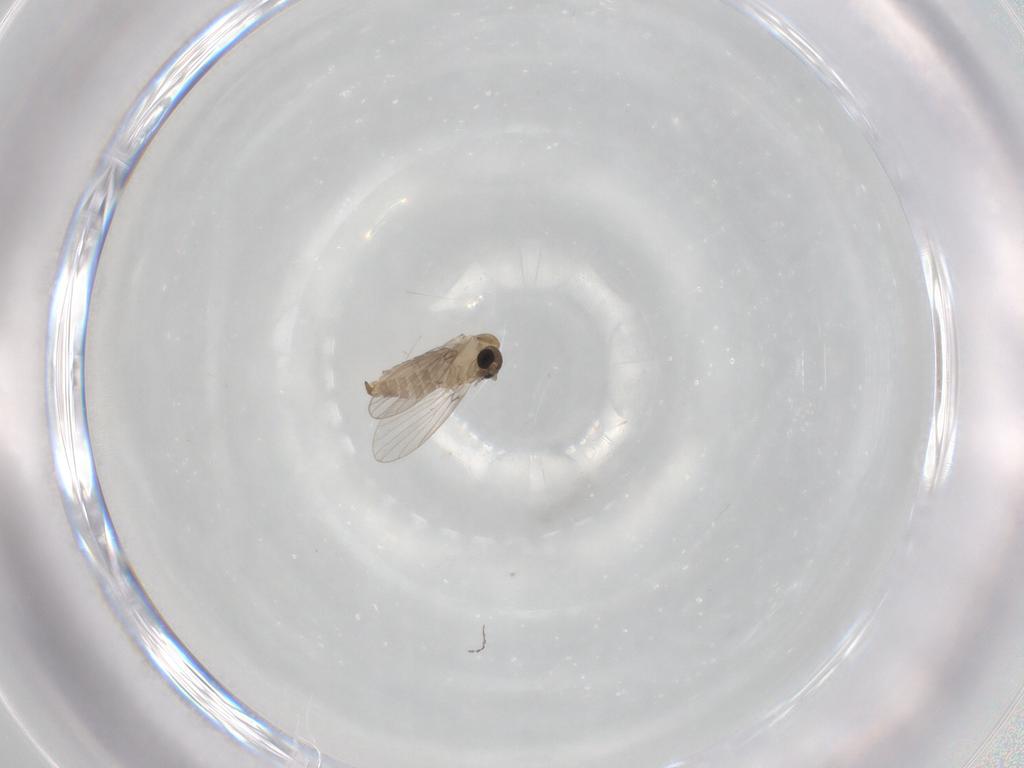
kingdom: Animalia
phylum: Arthropoda
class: Insecta
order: Diptera
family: Psychodidae
